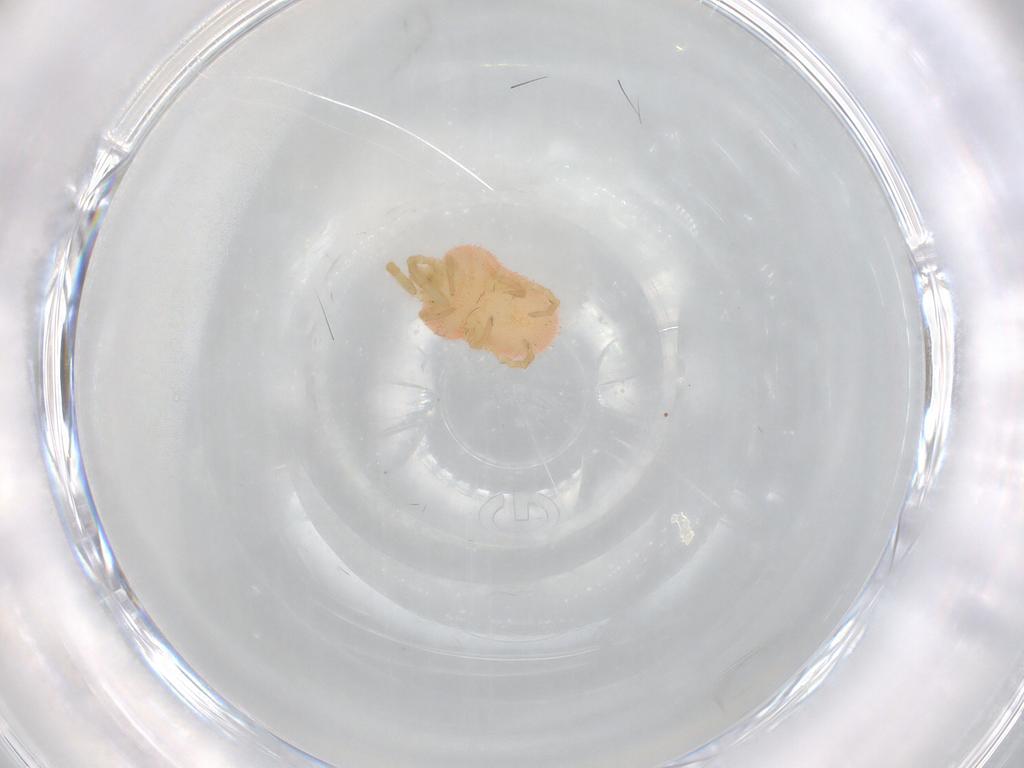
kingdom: Animalia
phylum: Arthropoda
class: Arachnida
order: Trombidiformes
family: Trombidiidae
